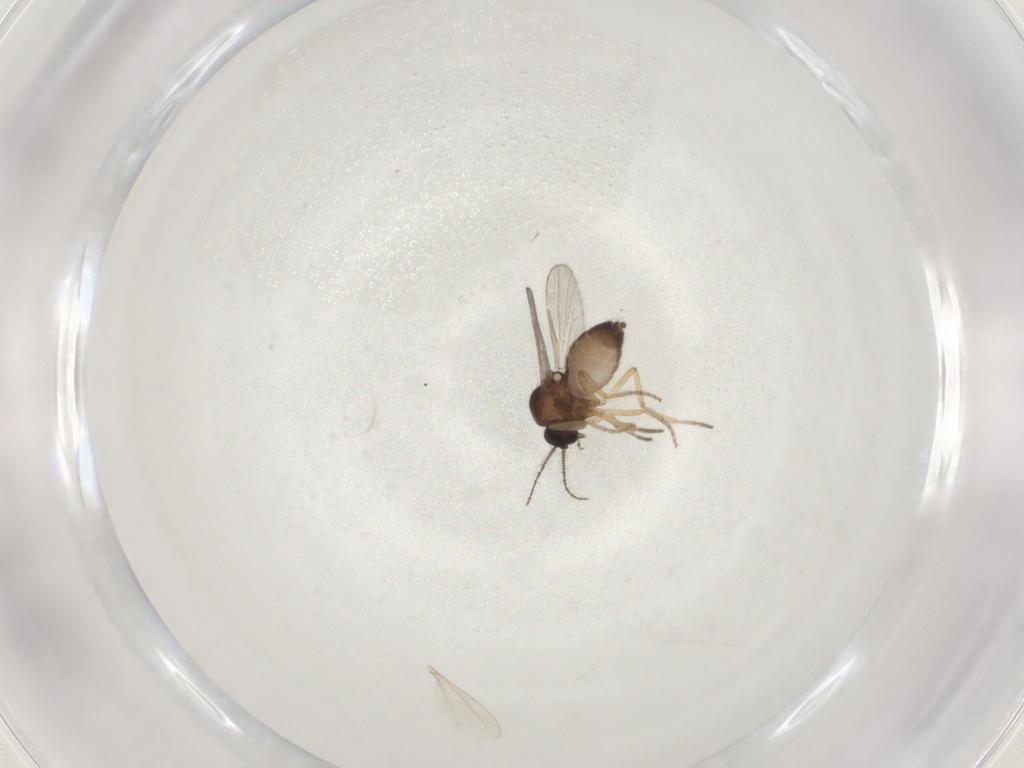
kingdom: Animalia
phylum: Arthropoda
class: Insecta
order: Diptera
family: Ceratopogonidae
